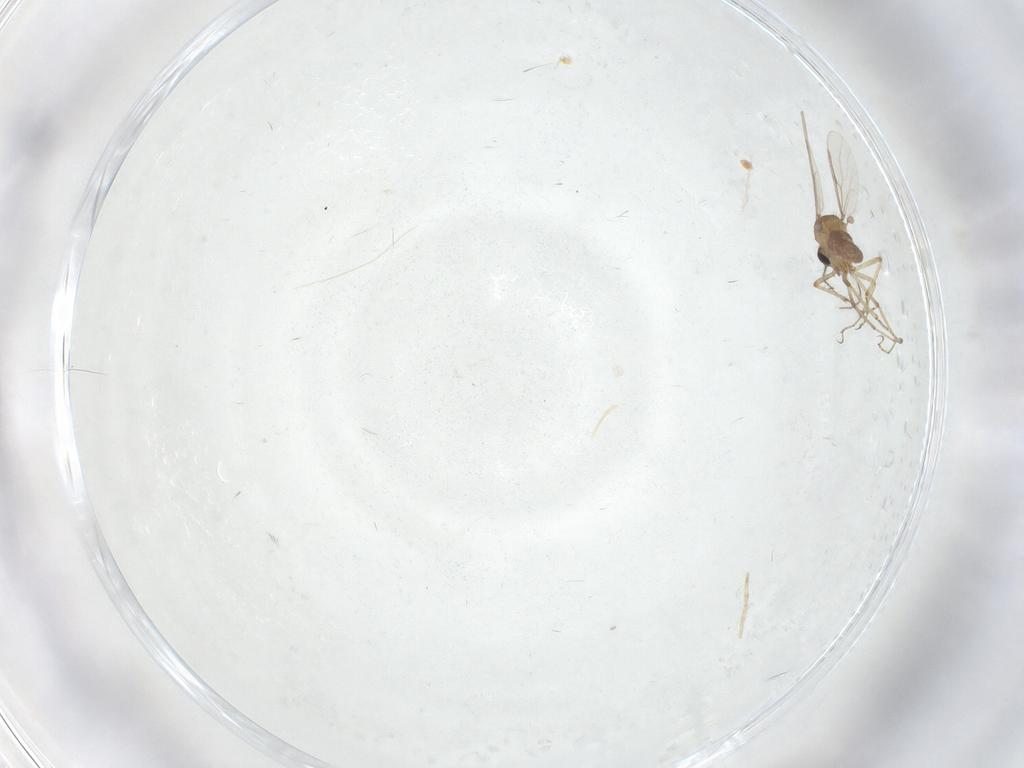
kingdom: Animalia
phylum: Arthropoda
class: Insecta
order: Diptera
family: Ceratopogonidae
